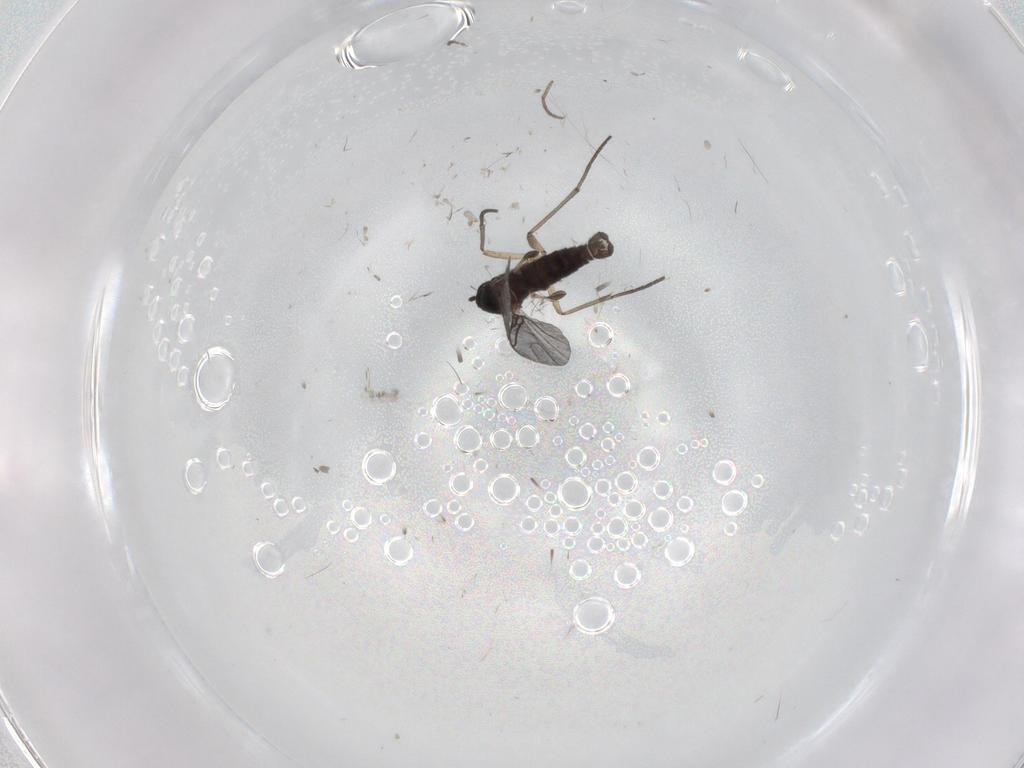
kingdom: Animalia
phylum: Arthropoda
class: Insecta
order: Diptera
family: Sciaridae
